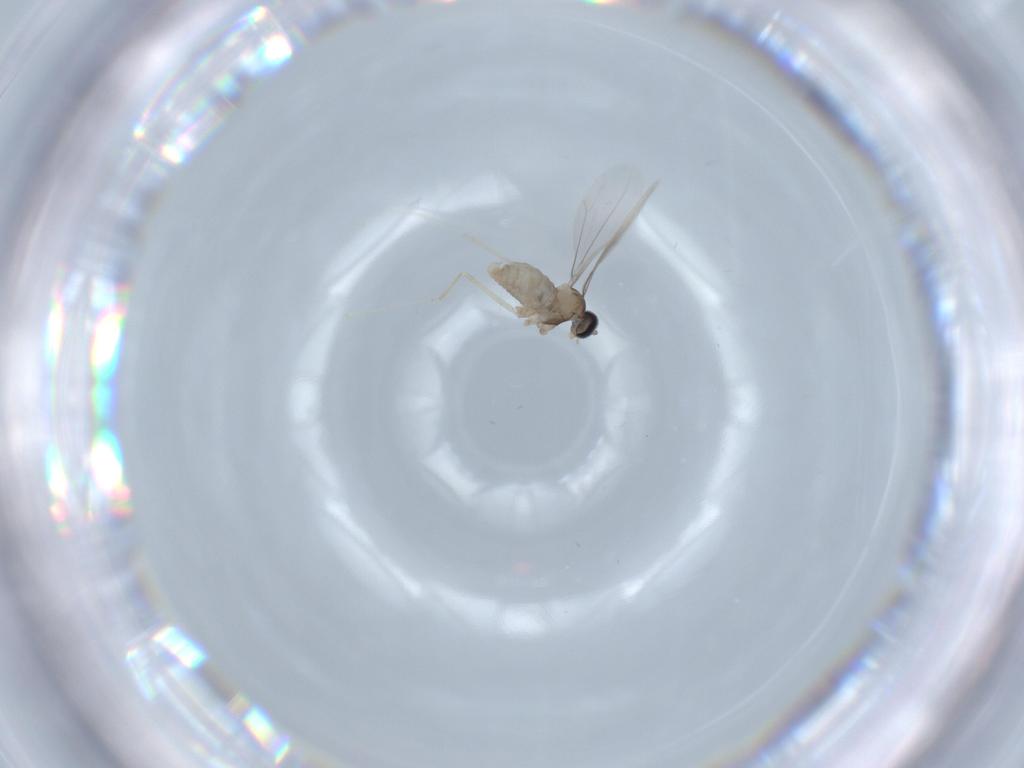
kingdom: Animalia
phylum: Arthropoda
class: Insecta
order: Diptera
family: Cecidomyiidae
